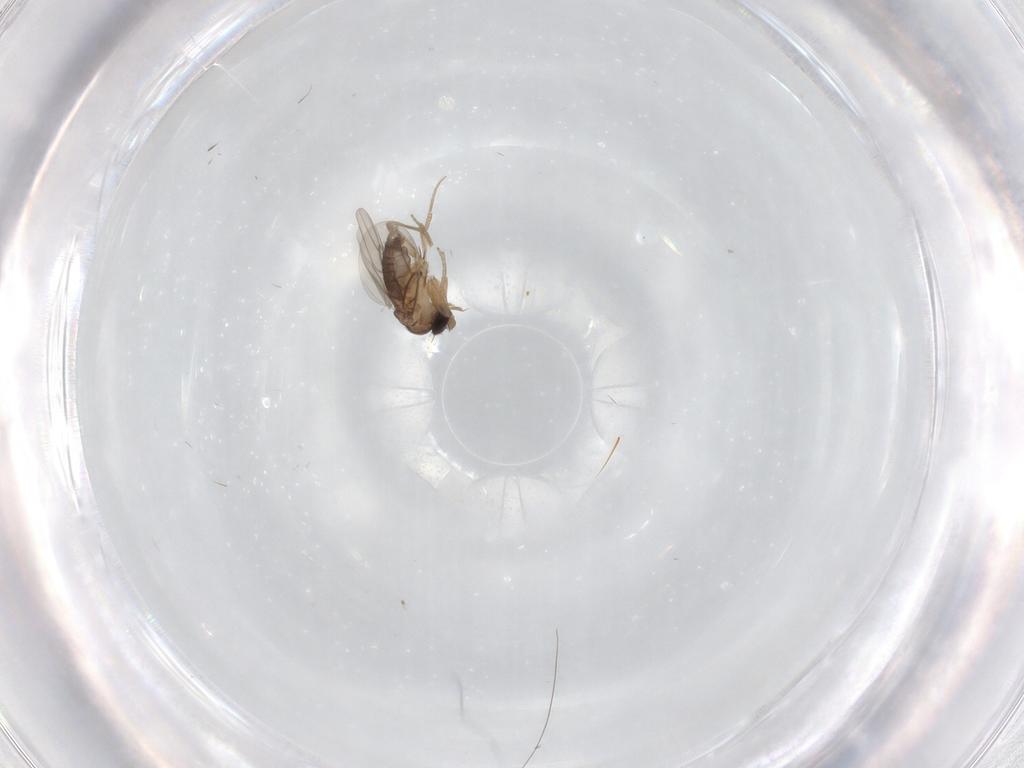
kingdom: Animalia
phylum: Arthropoda
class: Insecta
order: Diptera
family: Phoridae
